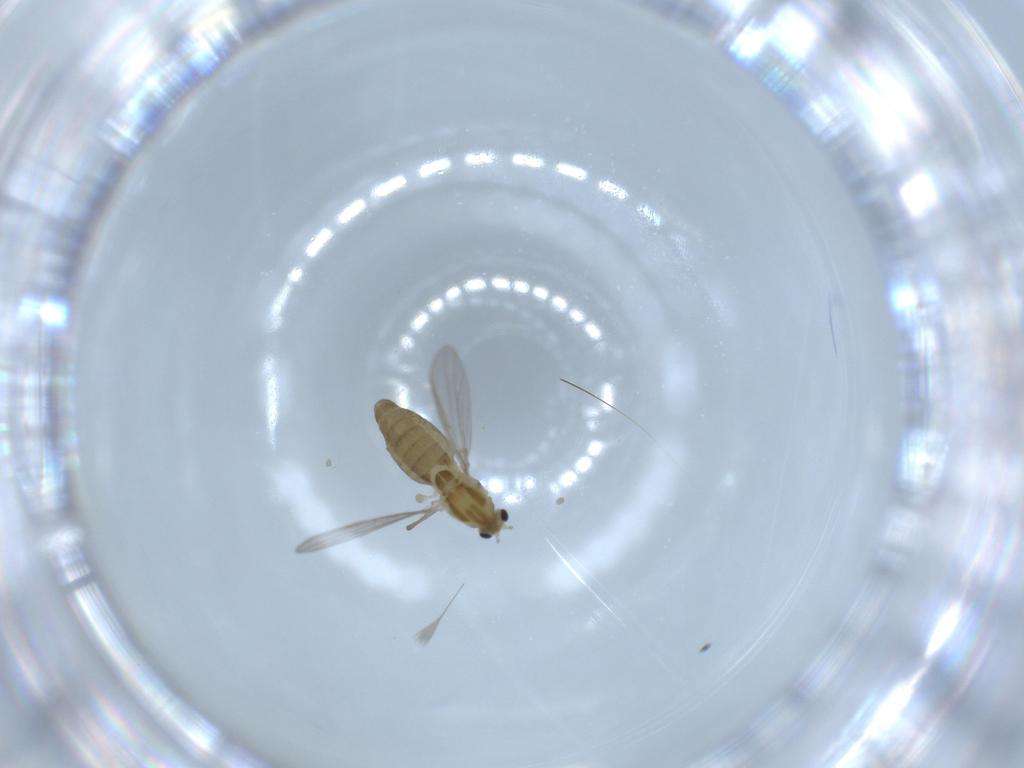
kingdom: Animalia
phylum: Arthropoda
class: Insecta
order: Diptera
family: Chironomidae
